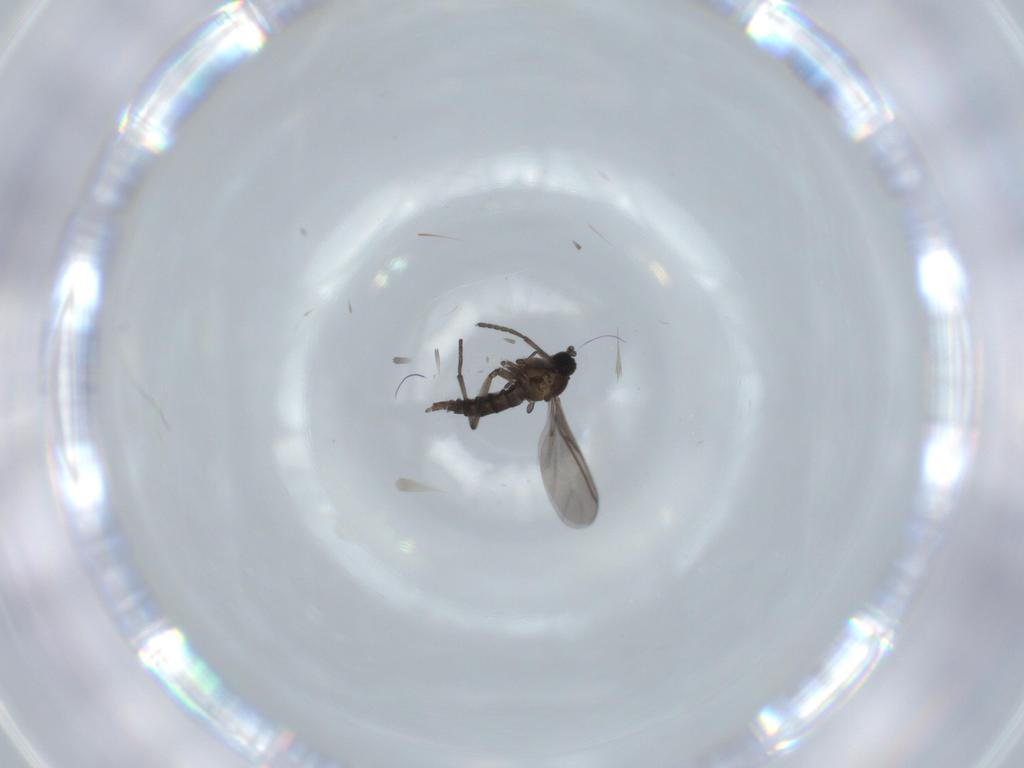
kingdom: Animalia
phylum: Arthropoda
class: Insecta
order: Diptera
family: Sciaridae
